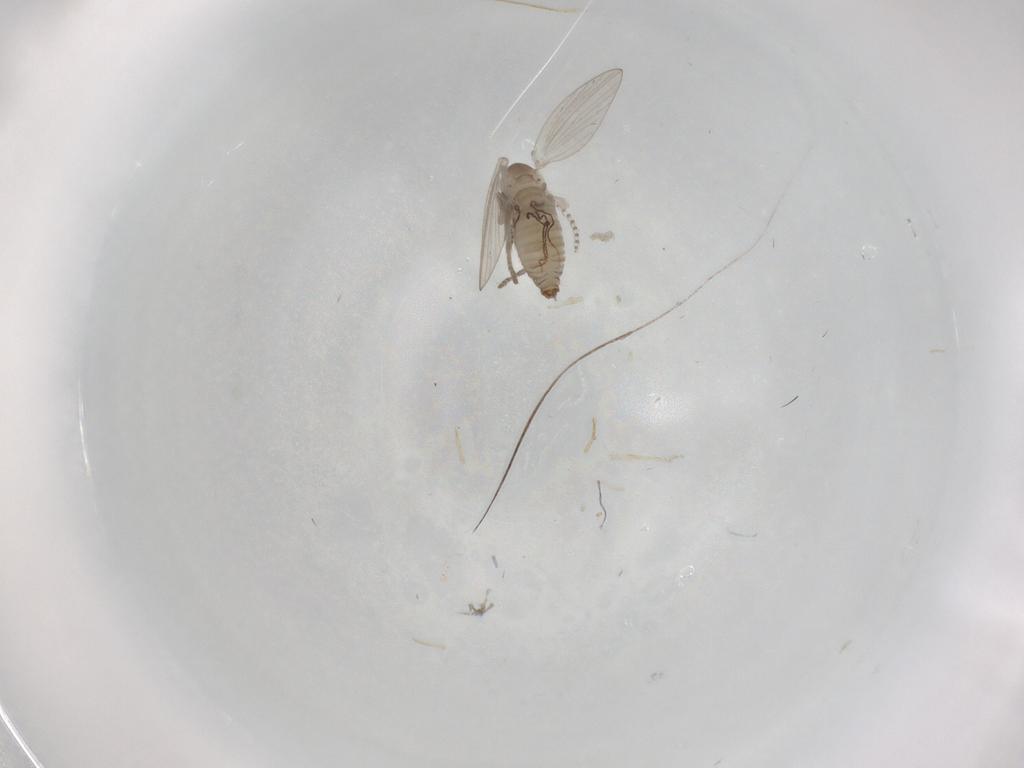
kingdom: Animalia
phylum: Arthropoda
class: Insecta
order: Diptera
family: Psychodidae
